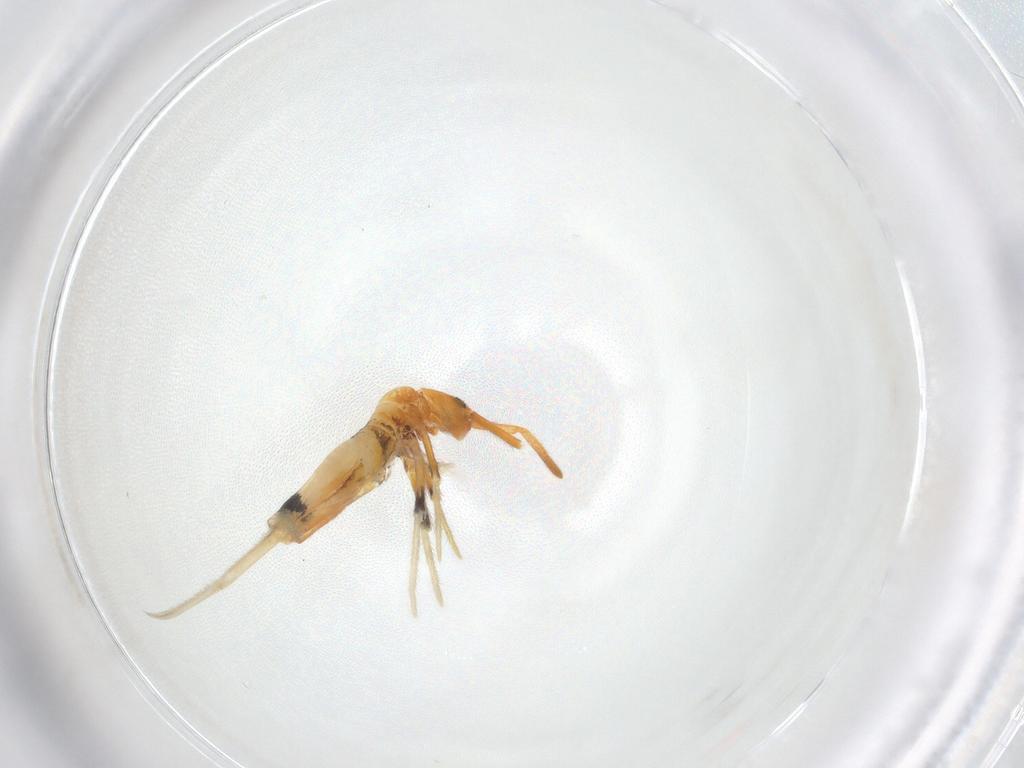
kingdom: Animalia
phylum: Arthropoda
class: Collembola
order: Entomobryomorpha
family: Entomobryidae
